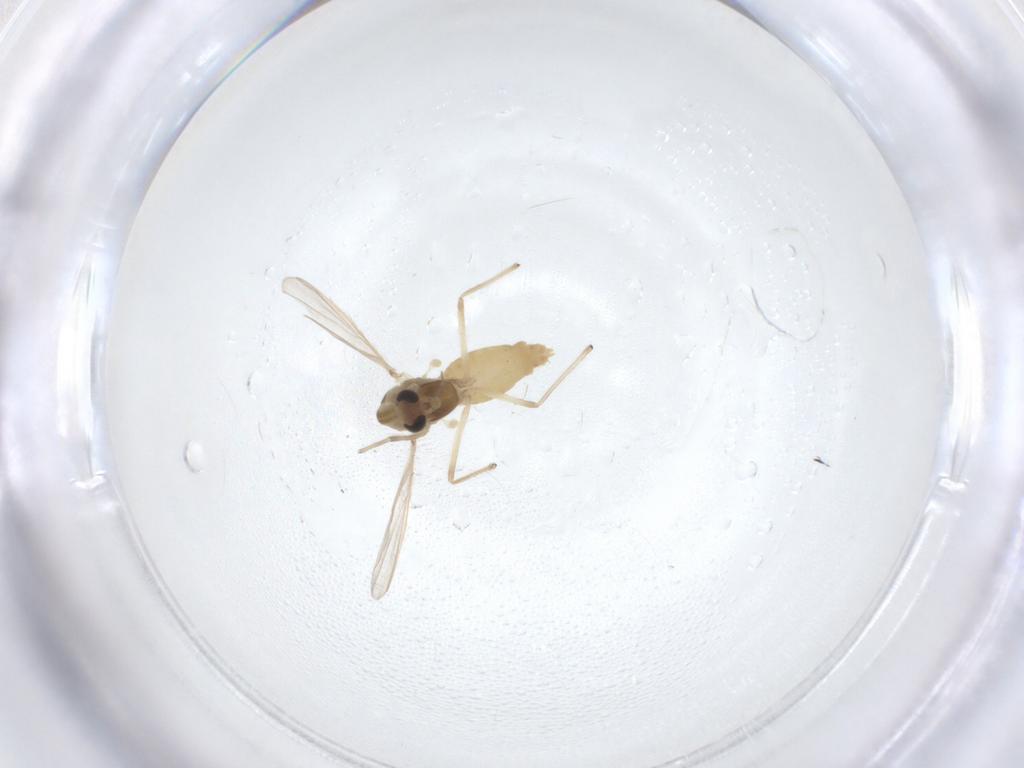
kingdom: Animalia
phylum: Arthropoda
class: Insecta
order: Diptera
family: Chironomidae
